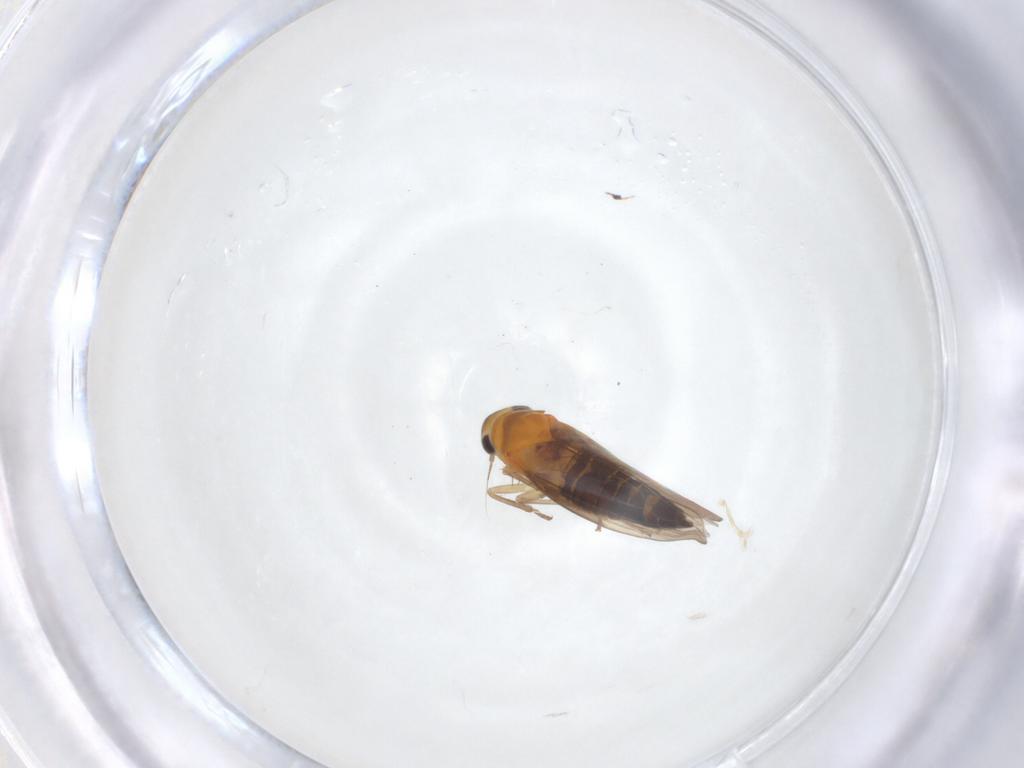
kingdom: Animalia
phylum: Arthropoda
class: Insecta
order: Hemiptera
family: Cicadellidae
